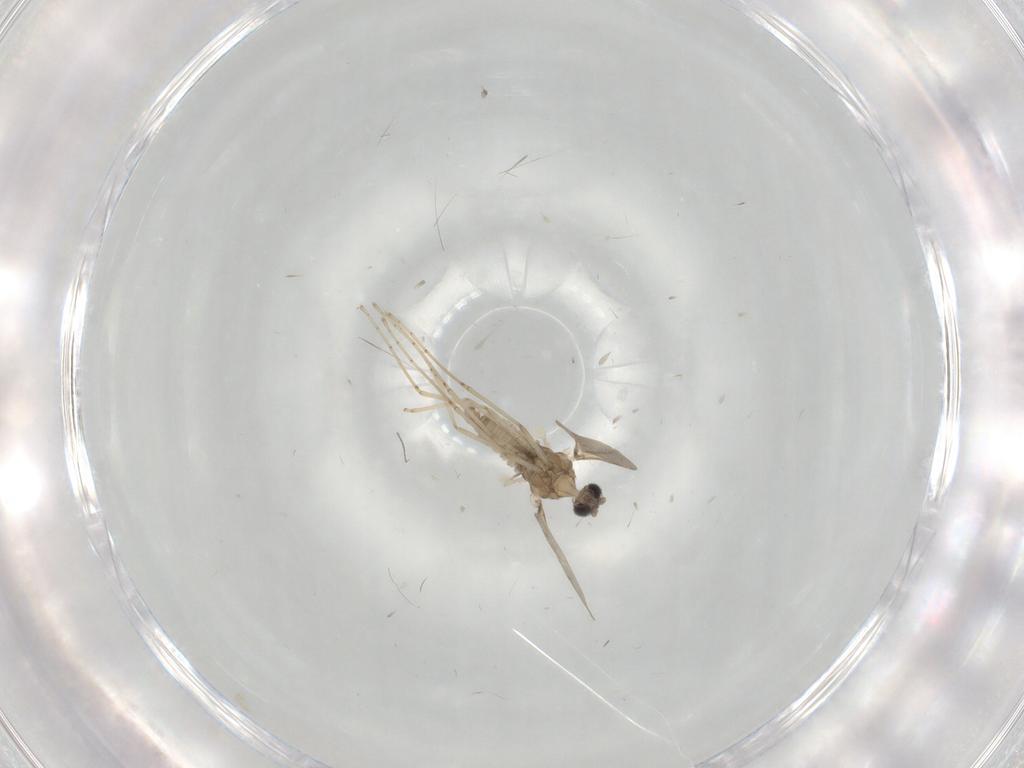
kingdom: Animalia
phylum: Arthropoda
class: Insecta
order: Diptera
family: Cecidomyiidae
